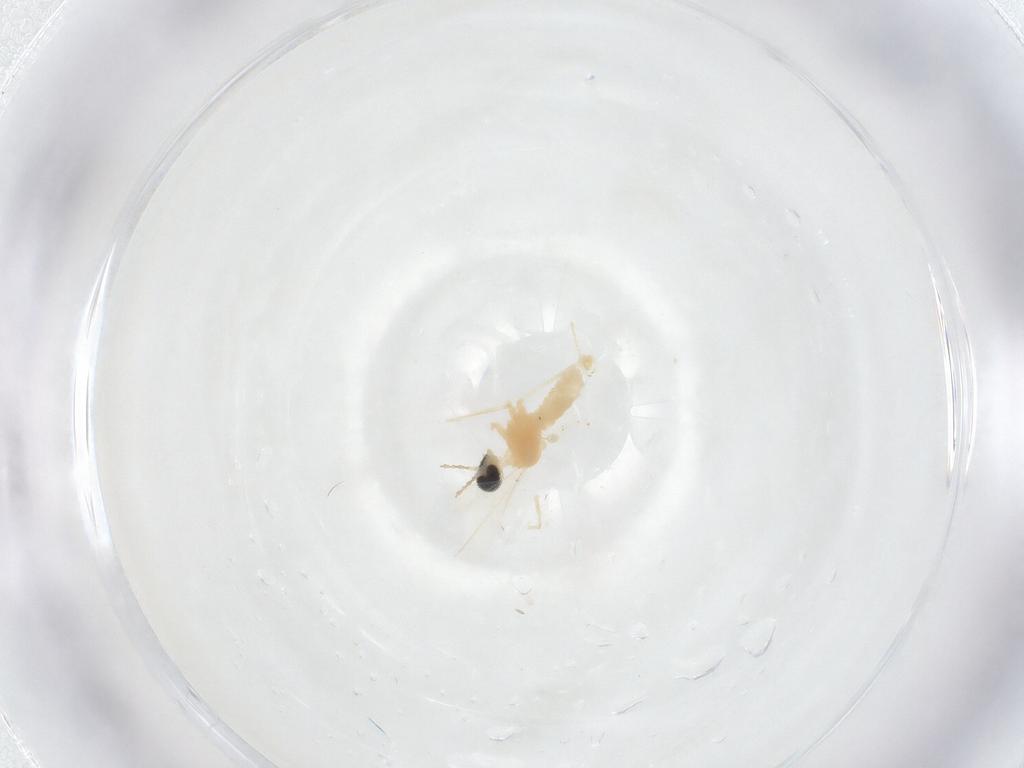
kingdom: Animalia
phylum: Arthropoda
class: Insecta
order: Diptera
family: Cecidomyiidae
